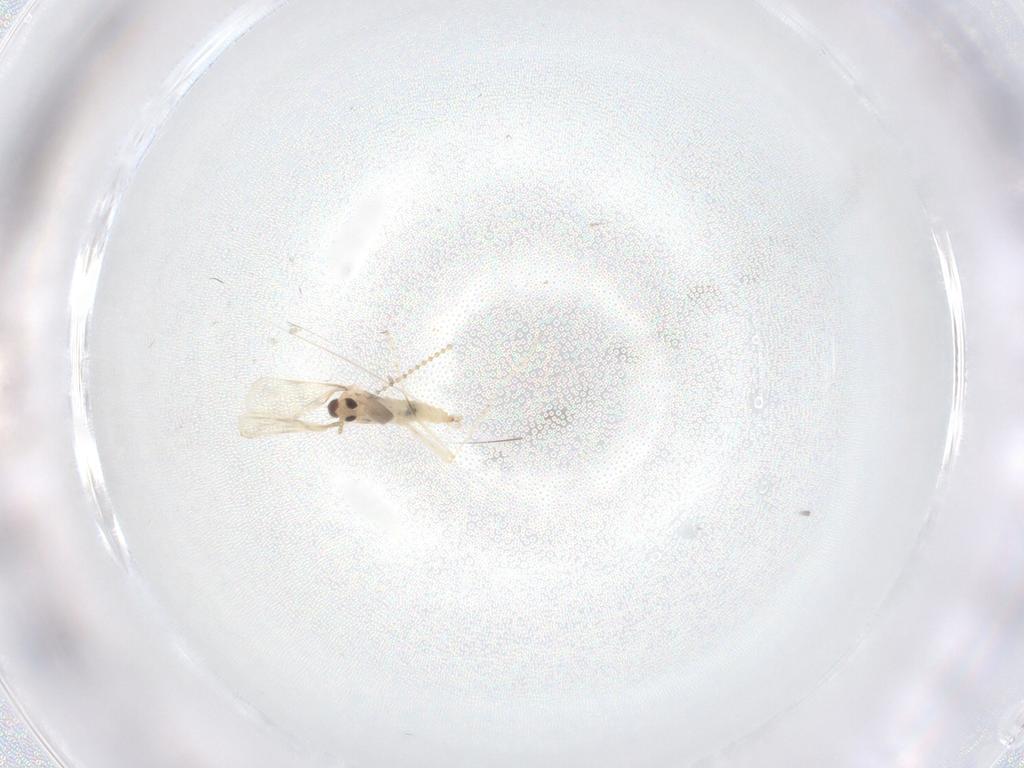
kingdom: Animalia
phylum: Arthropoda
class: Insecta
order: Diptera
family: Cecidomyiidae
